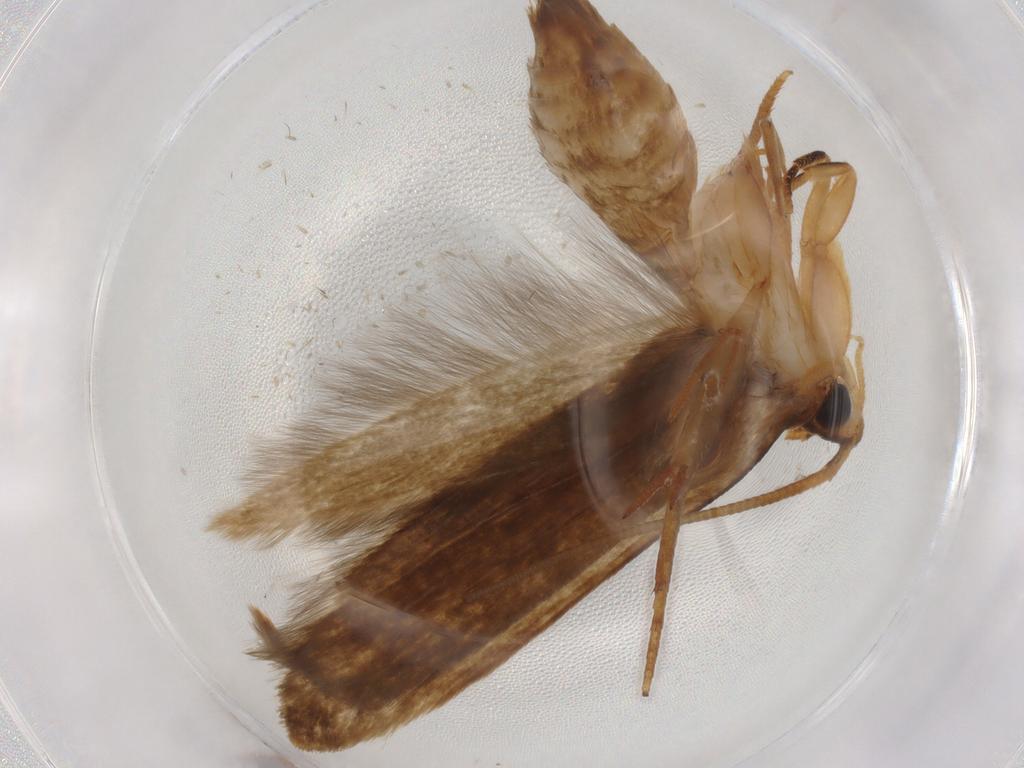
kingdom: Animalia
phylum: Arthropoda
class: Insecta
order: Lepidoptera
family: Tineidae
